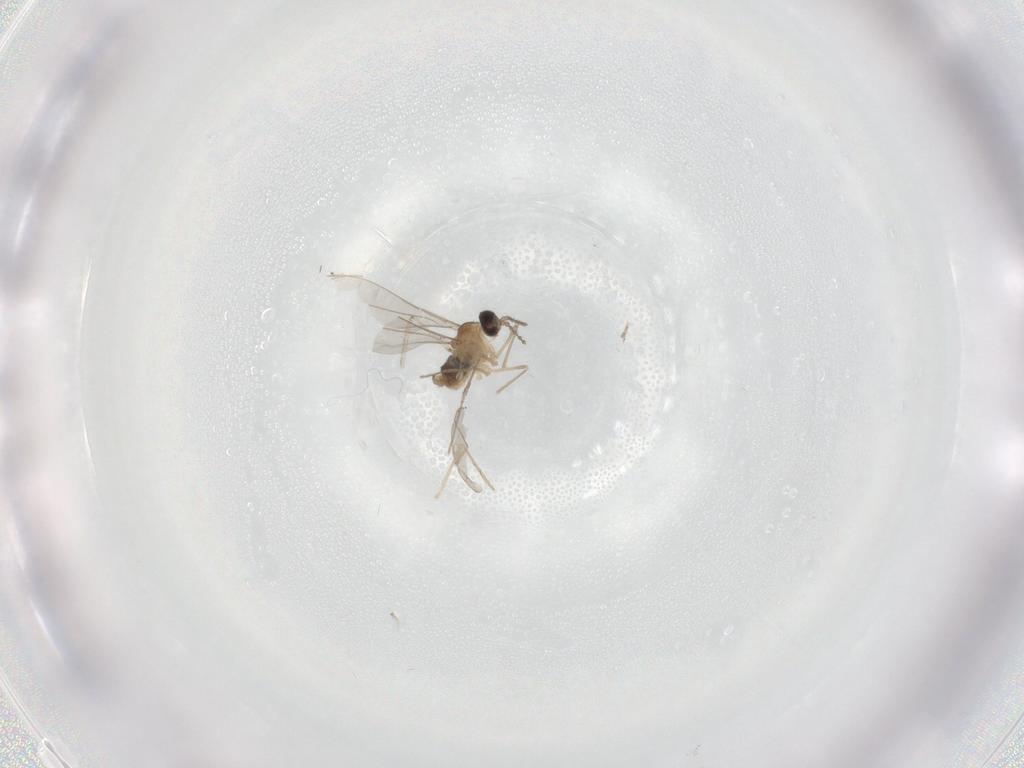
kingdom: Animalia
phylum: Arthropoda
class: Insecta
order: Diptera
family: Cecidomyiidae
